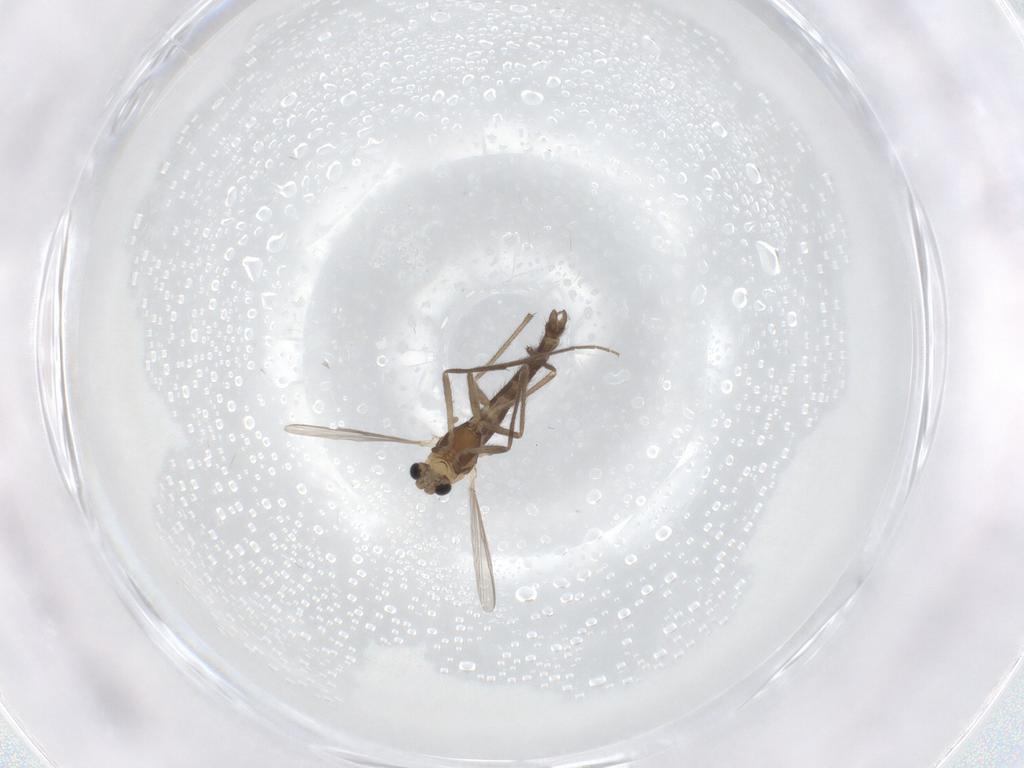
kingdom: Animalia
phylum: Arthropoda
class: Insecta
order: Diptera
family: Chironomidae
